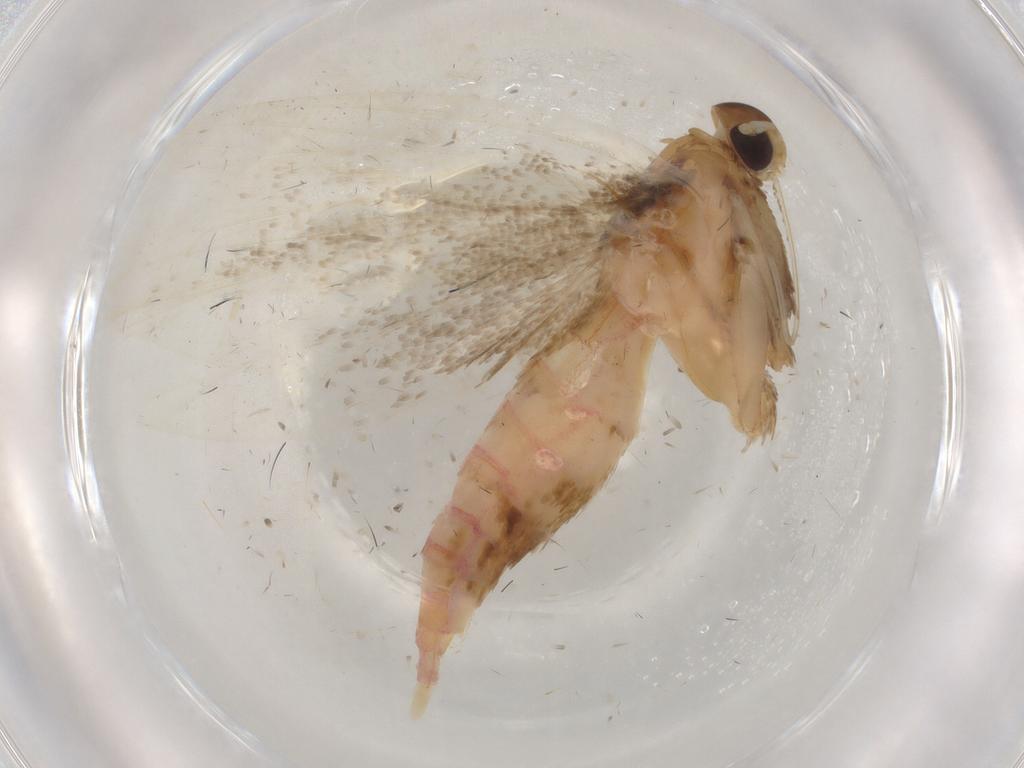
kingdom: Animalia
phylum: Arthropoda
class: Insecta
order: Lepidoptera
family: Lecithoceridae
